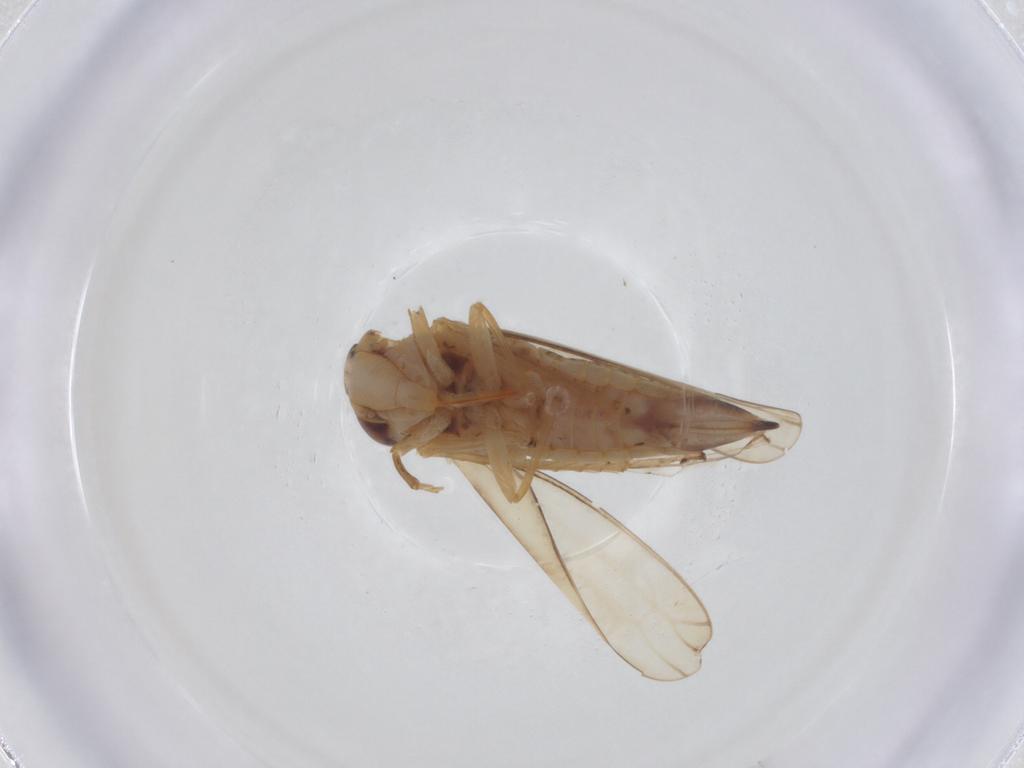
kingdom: Animalia
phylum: Arthropoda
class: Insecta
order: Hemiptera
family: Cicadellidae
